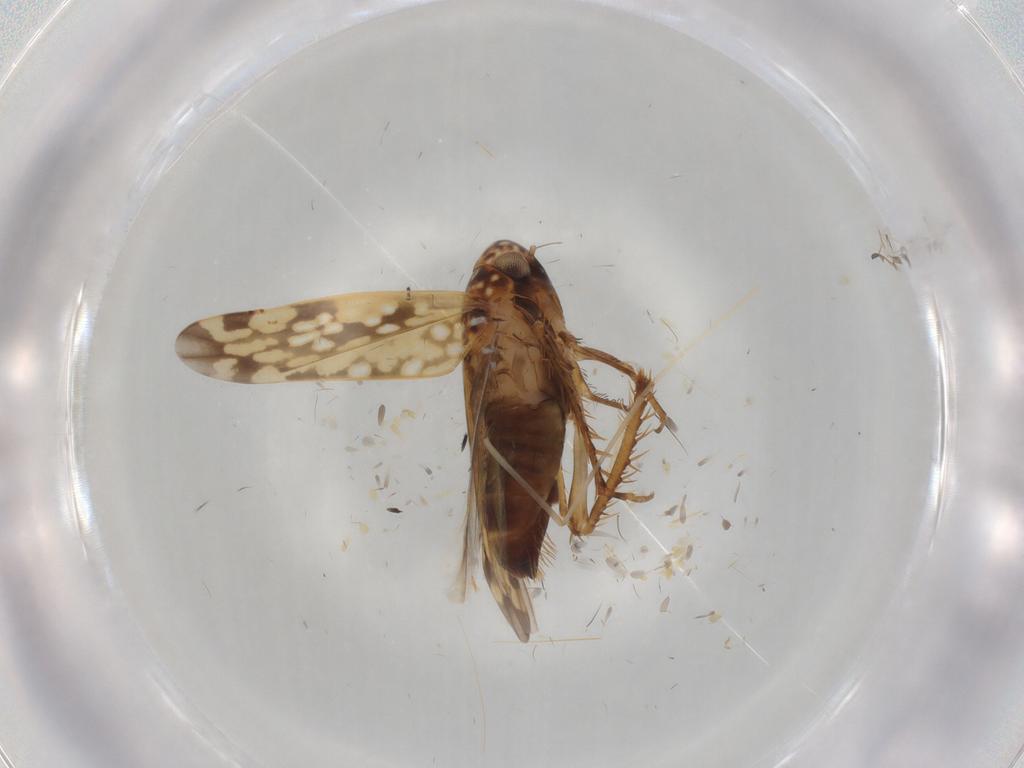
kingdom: Animalia
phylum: Arthropoda
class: Insecta
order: Hemiptera
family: Cicadellidae
